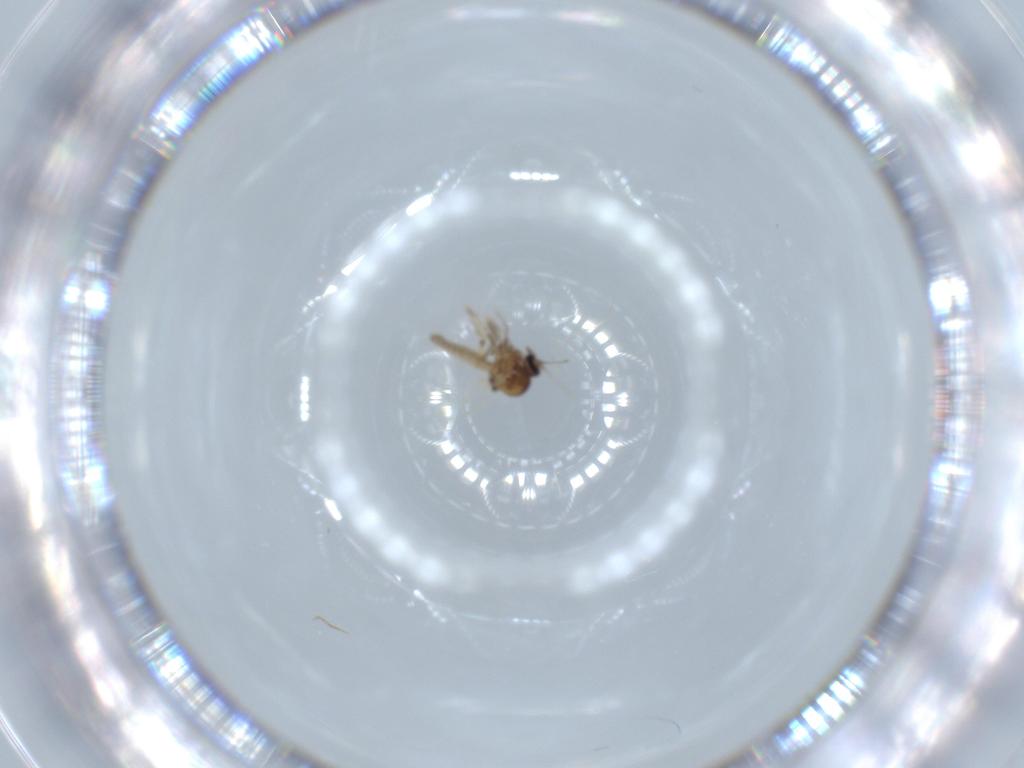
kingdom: Animalia
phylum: Arthropoda
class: Insecta
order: Diptera
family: Ceratopogonidae
